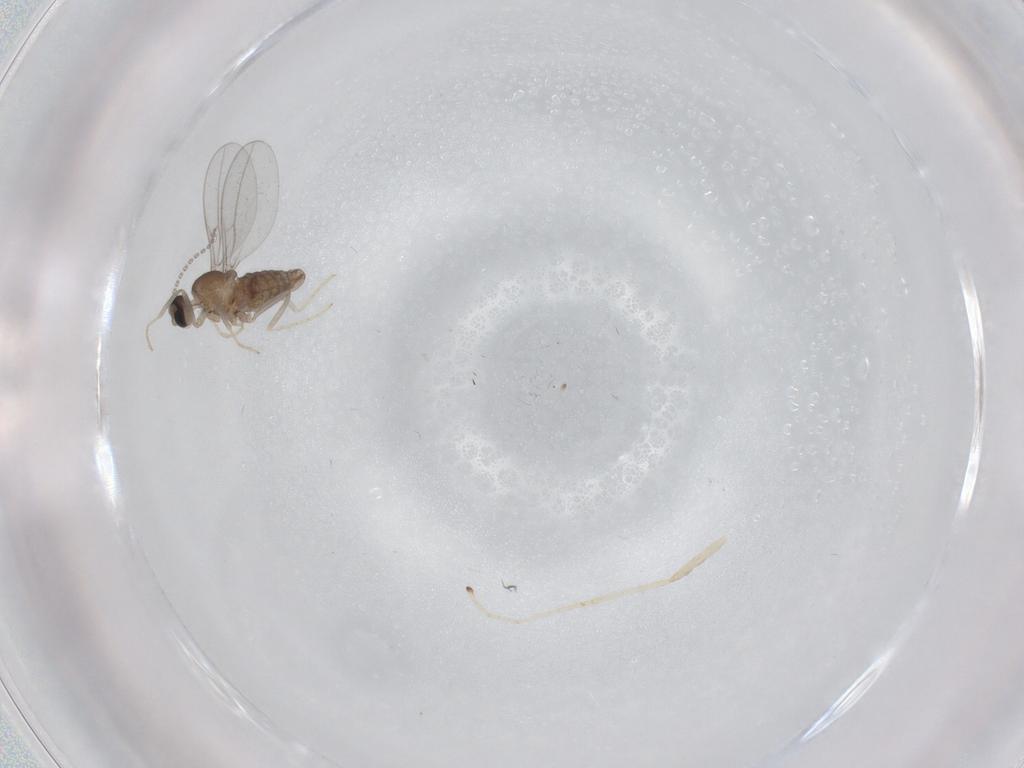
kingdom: Animalia
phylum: Arthropoda
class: Insecta
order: Diptera
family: Cecidomyiidae
